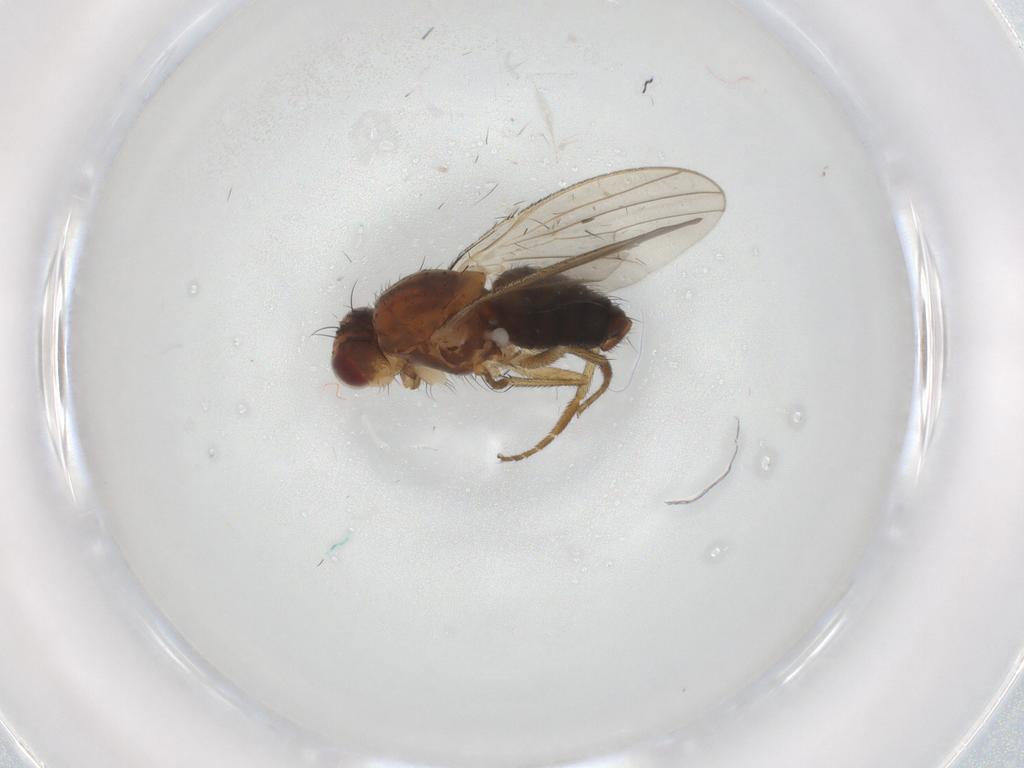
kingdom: Animalia
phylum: Arthropoda
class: Insecta
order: Diptera
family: Heleomyzidae
